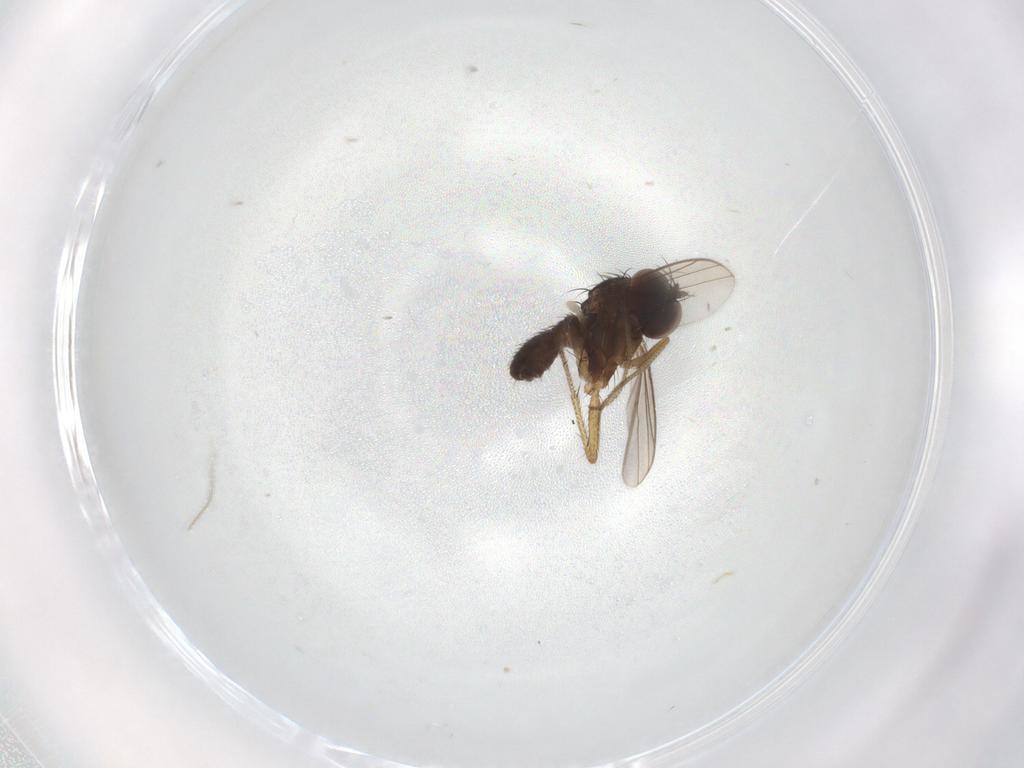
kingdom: Animalia
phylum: Arthropoda
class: Insecta
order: Diptera
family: Dolichopodidae
